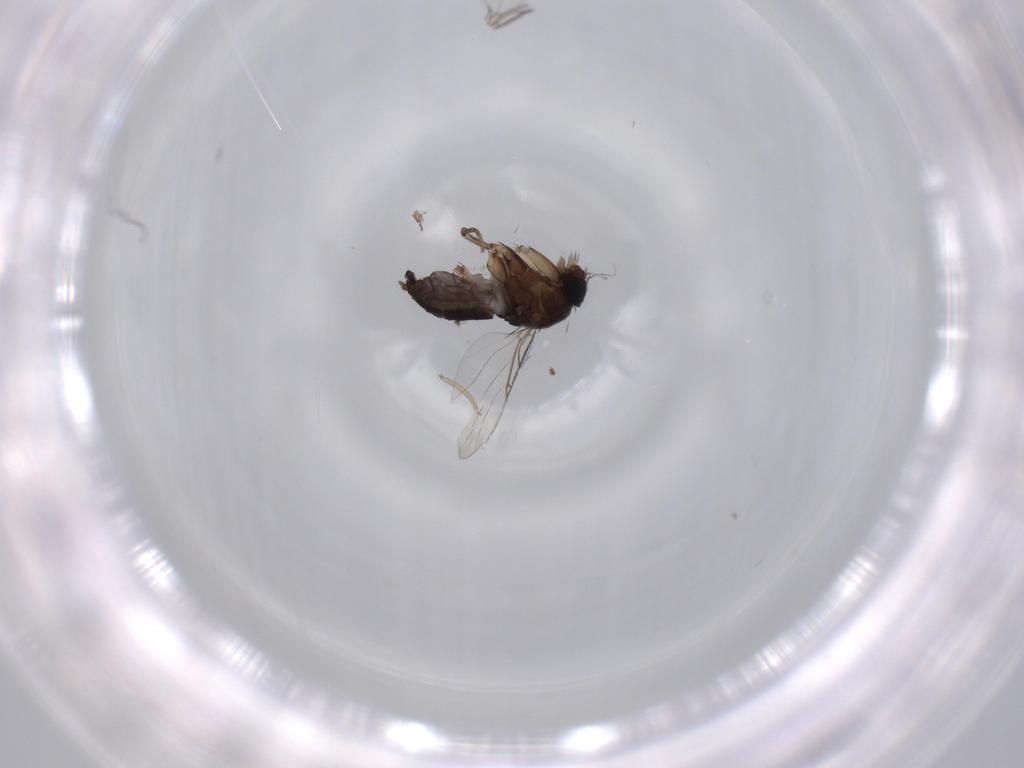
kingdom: Animalia
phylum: Arthropoda
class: Insecta
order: Diptera
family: Phoridae
